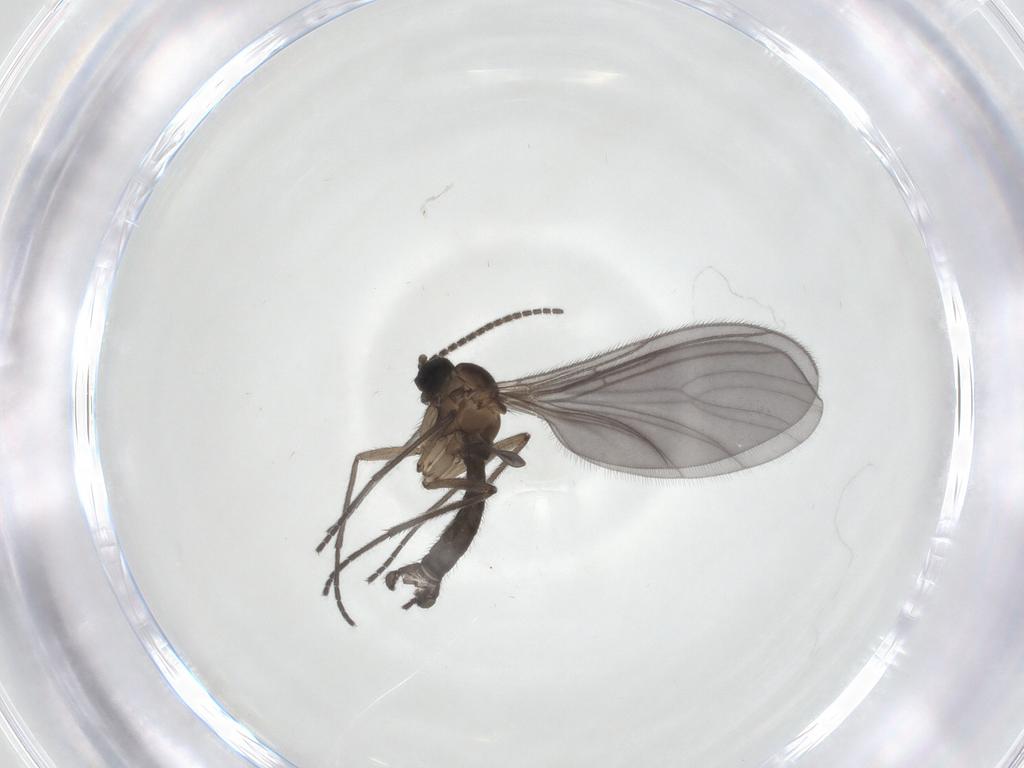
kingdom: Animalia
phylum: Arthropoda
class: Insecta
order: Diptera
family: Sciaridae
